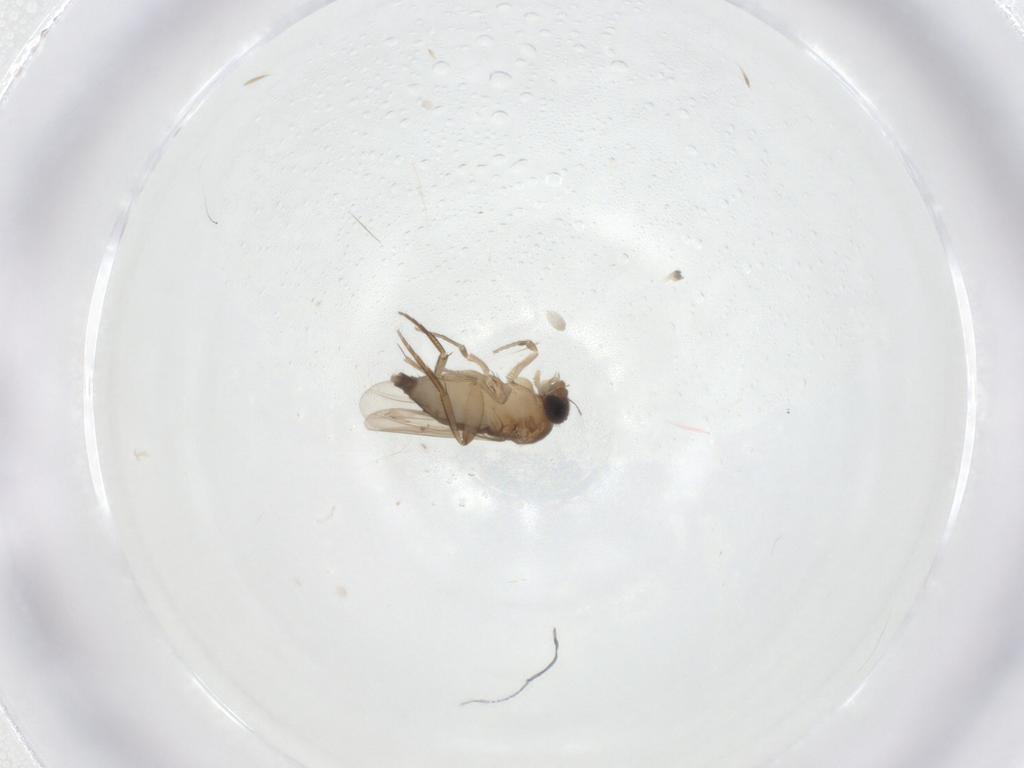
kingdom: Animalia
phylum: Arthropoda
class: Insecta
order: Diptera
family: Phoridae
